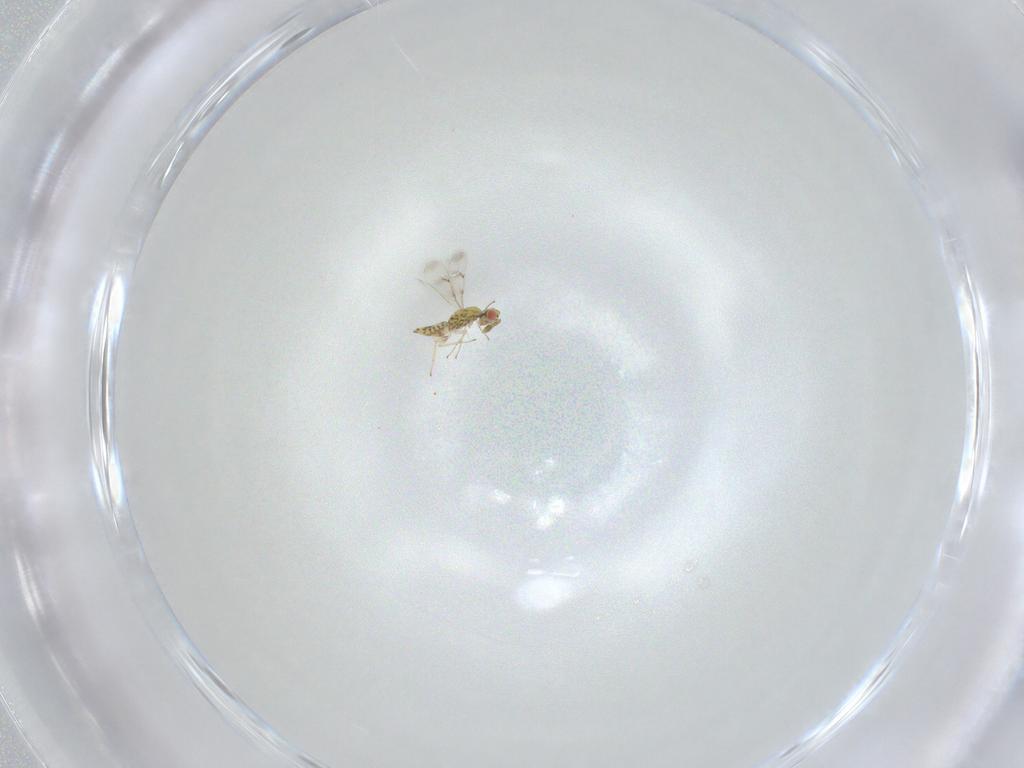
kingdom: Animalia
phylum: Arthropoda
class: Insecta
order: Hymenoptera
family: Eulophidae
